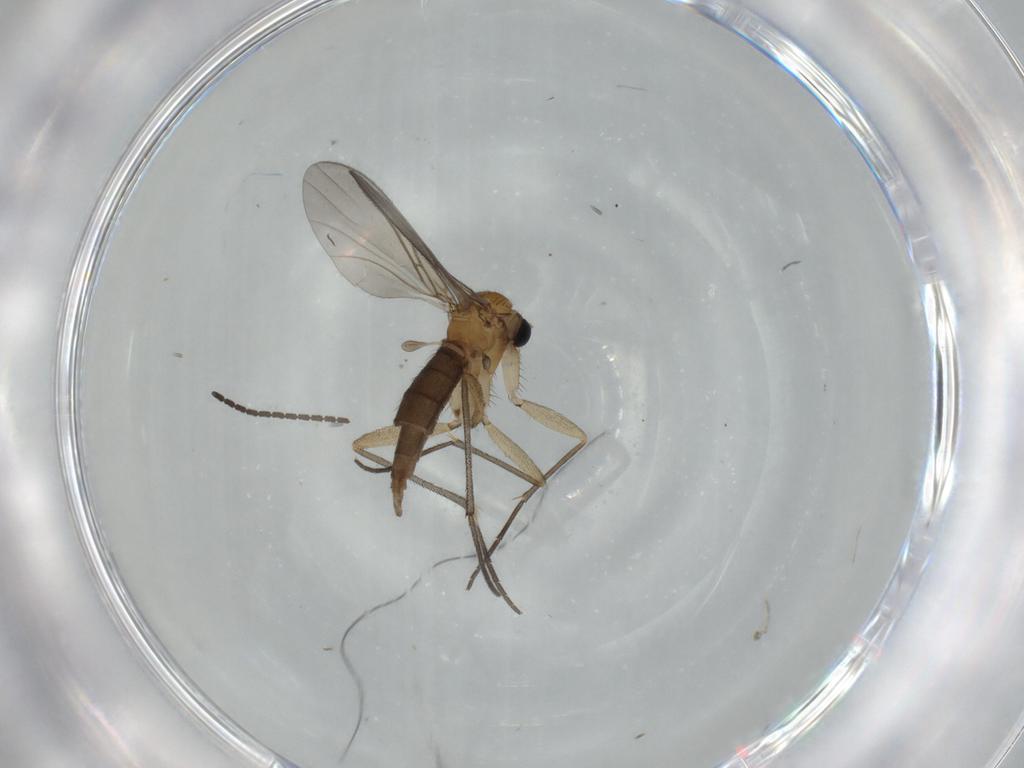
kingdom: Animalia
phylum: Arthropoda
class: Insecta
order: Diptera
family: Sciaridae
